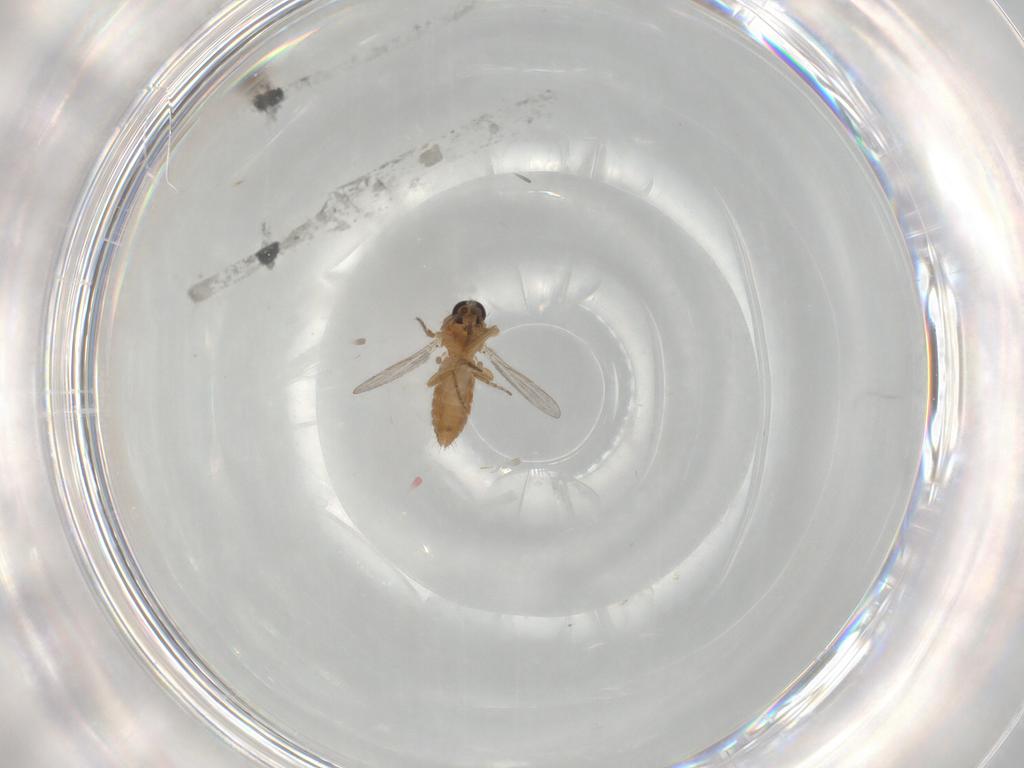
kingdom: Animalia
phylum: Arthropoda
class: Insecta
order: Diptera
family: Ceratopogonidae
